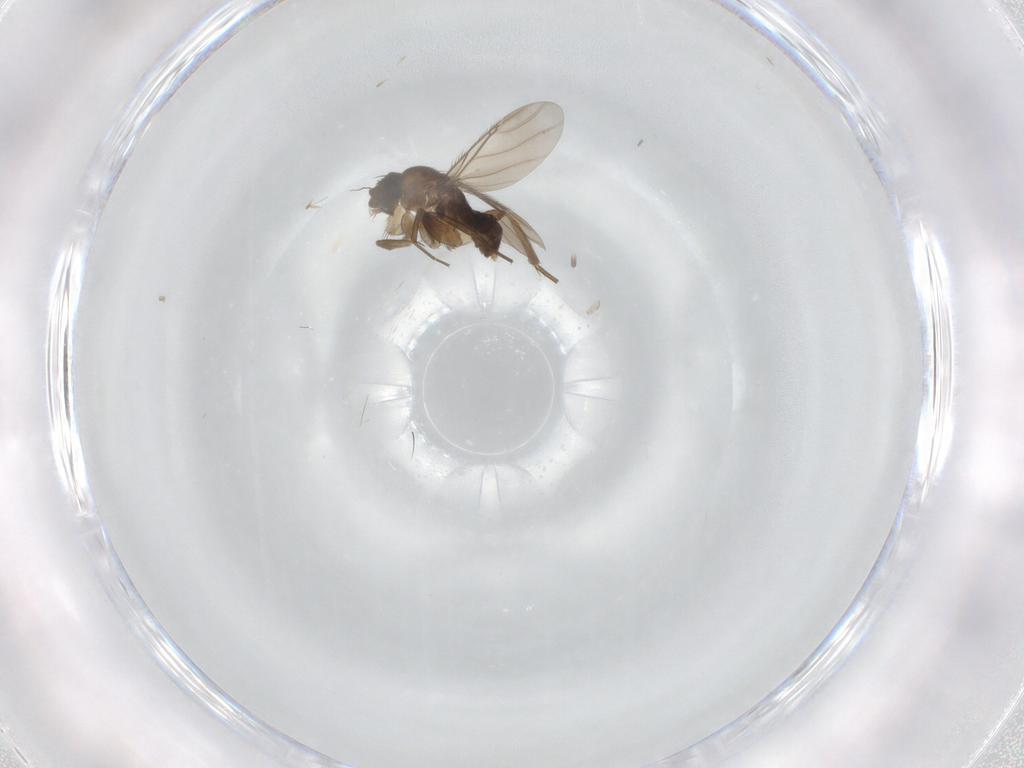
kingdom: Animalia
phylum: Arthropoda
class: Insecta
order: Diptera
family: Phoridae
